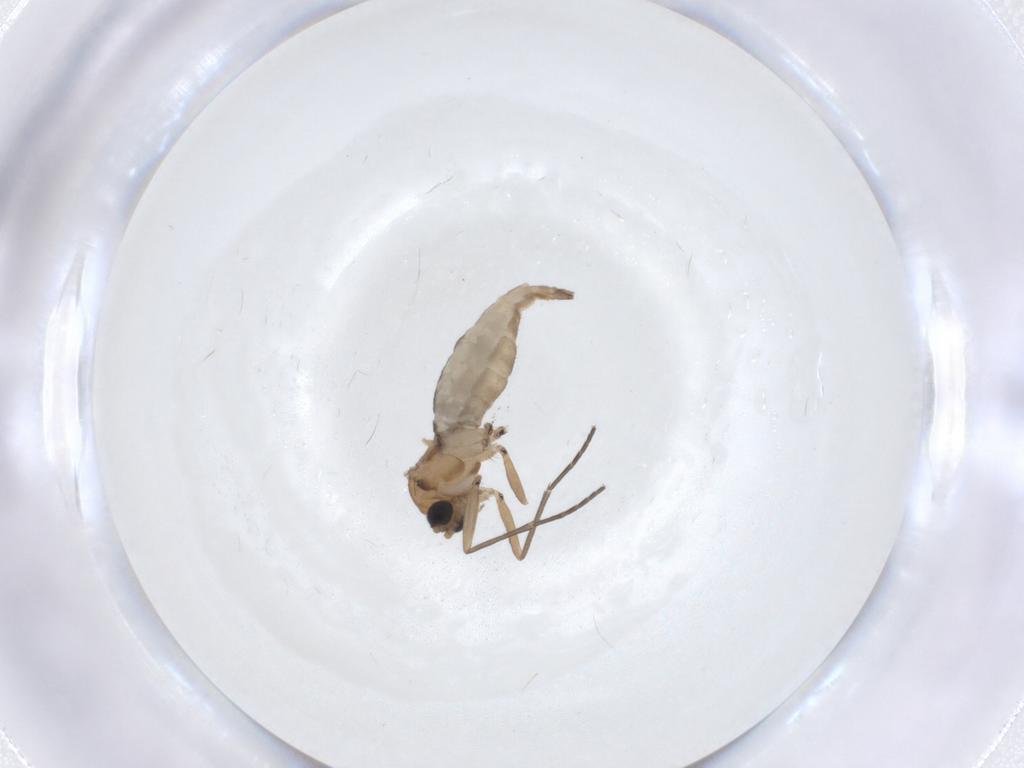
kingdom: Animalia
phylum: Arthropoda
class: Insecta
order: Diptera
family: Sciaridae
